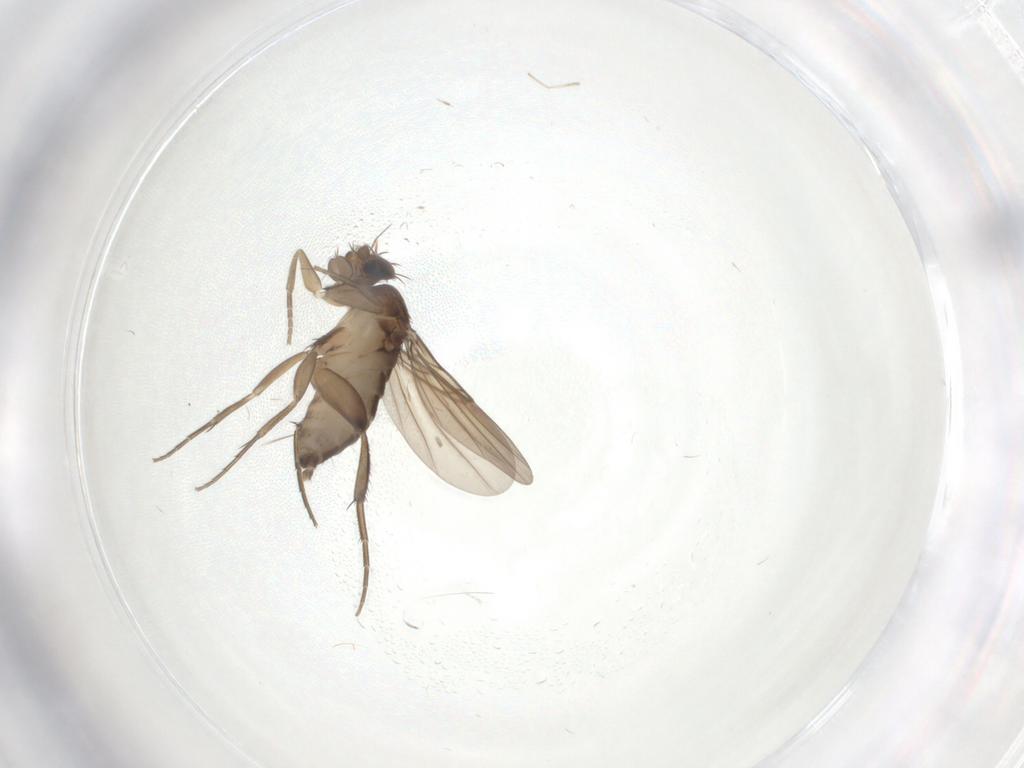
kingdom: Animalia
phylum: Arthropoda
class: Insecta
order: Diptera
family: Phoridae
